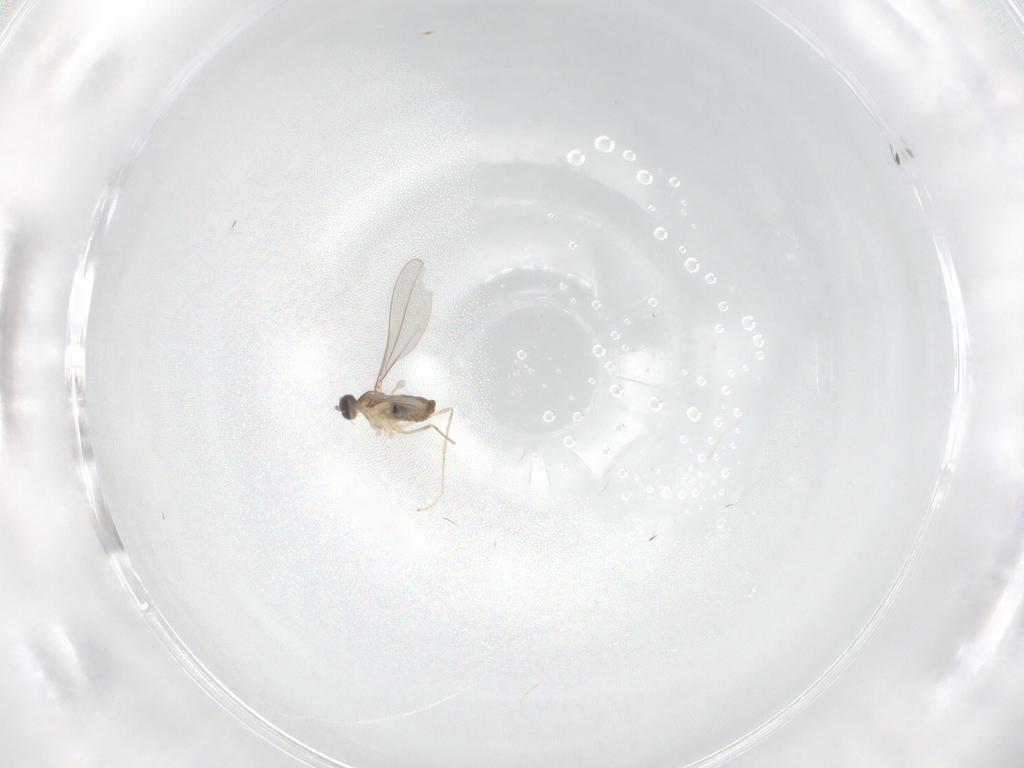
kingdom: Animalia
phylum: Arthropoda
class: Insecta
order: Diptera
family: Cecidomyiidae
